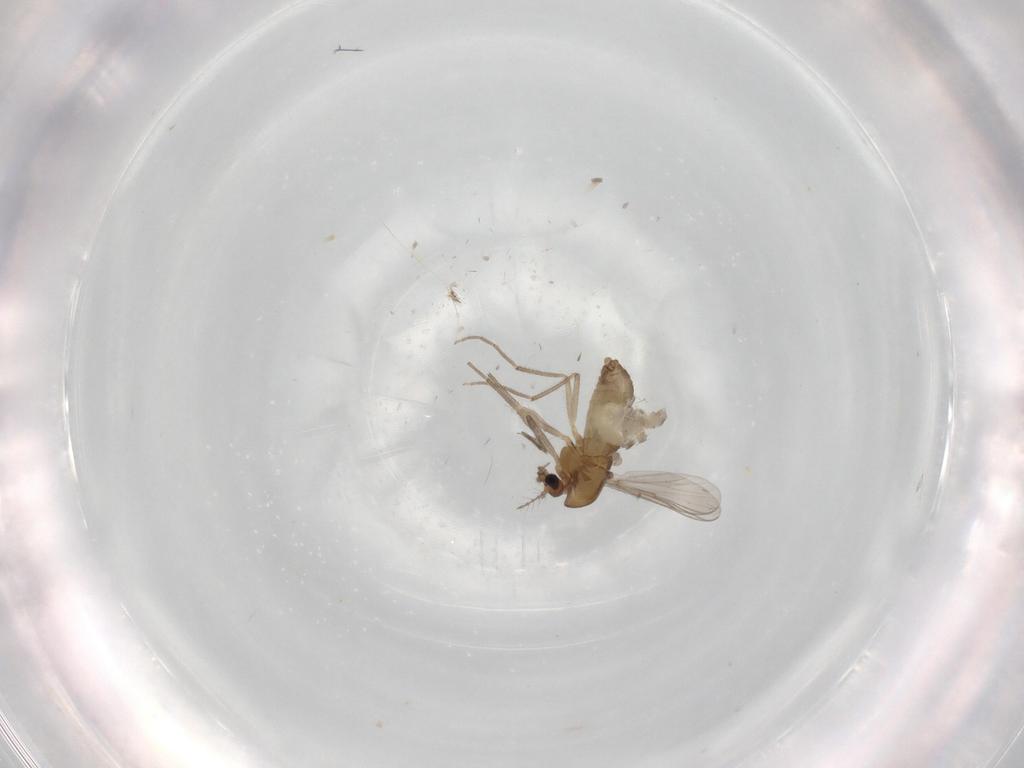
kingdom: Animalia
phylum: Arthropoda
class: Insecta
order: Diptera
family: Chironomidae
